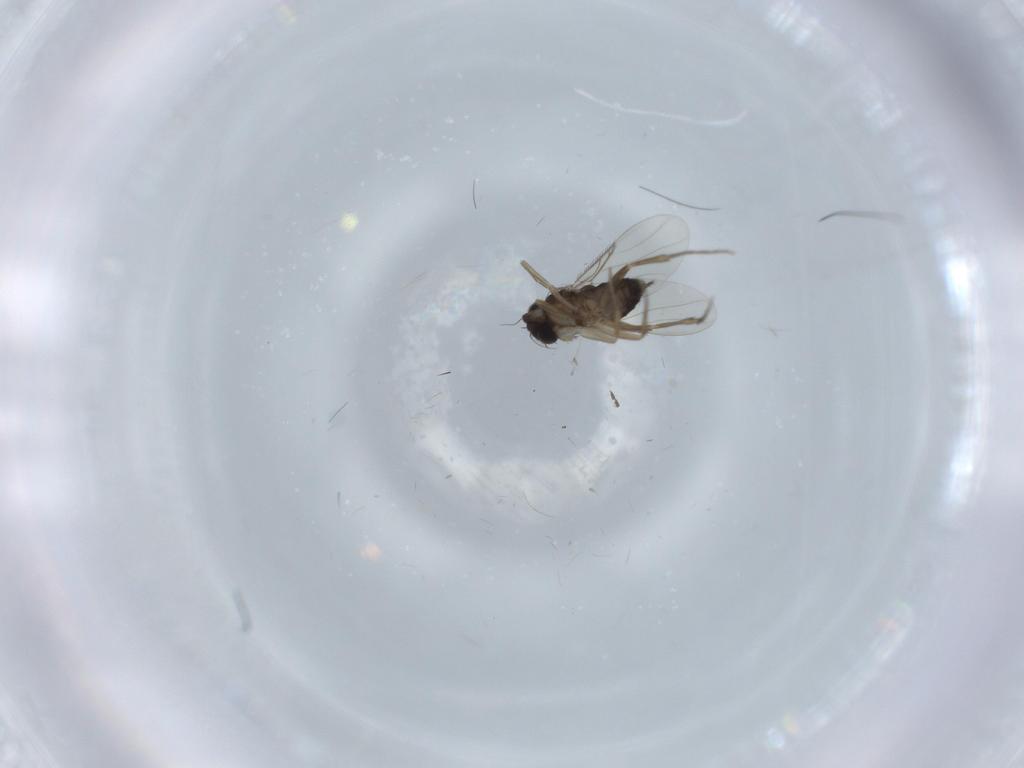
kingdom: Animalia
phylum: Arthropoda
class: Insecta
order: Diptera
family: Phoridae
